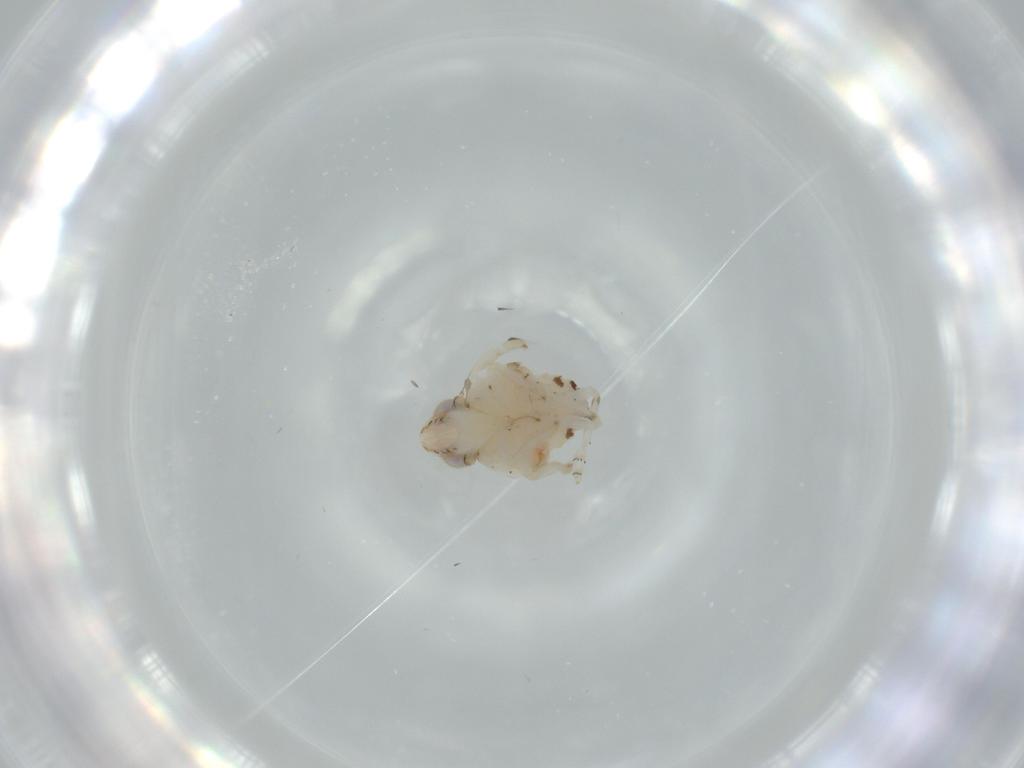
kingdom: Animalia
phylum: Arthropoda
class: Insecta
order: Hemiptera
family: Nogodinidae
